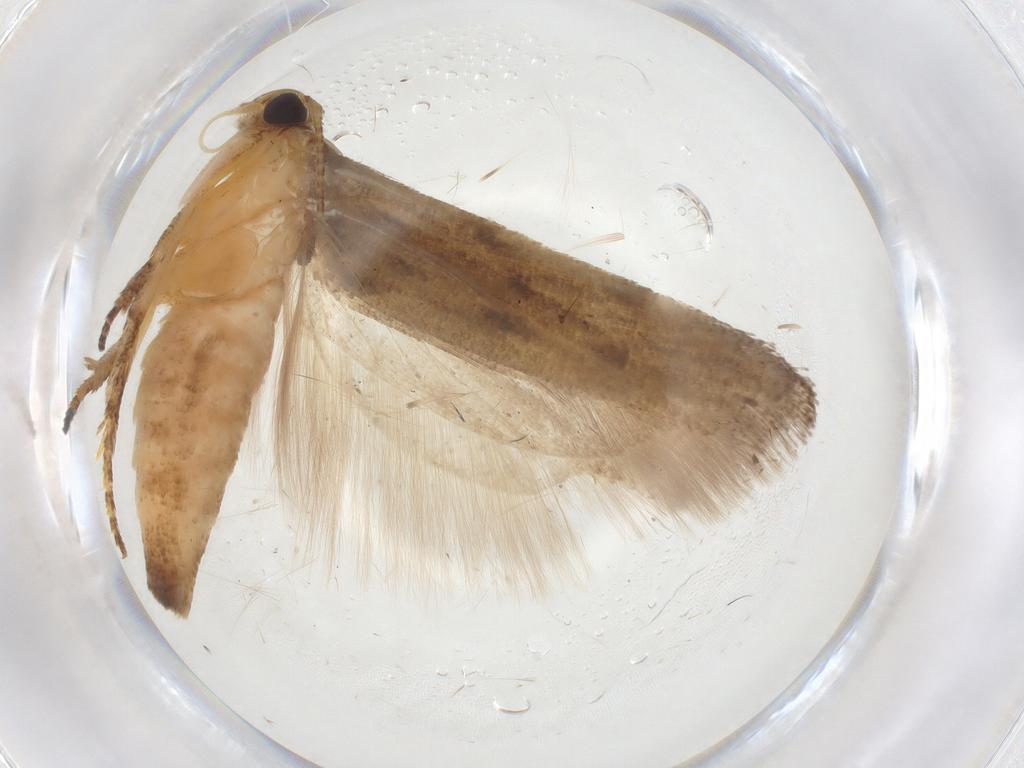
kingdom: Animalia
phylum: Arthropoda
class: Insecta
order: Lepidoptera
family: Gelechiidae
